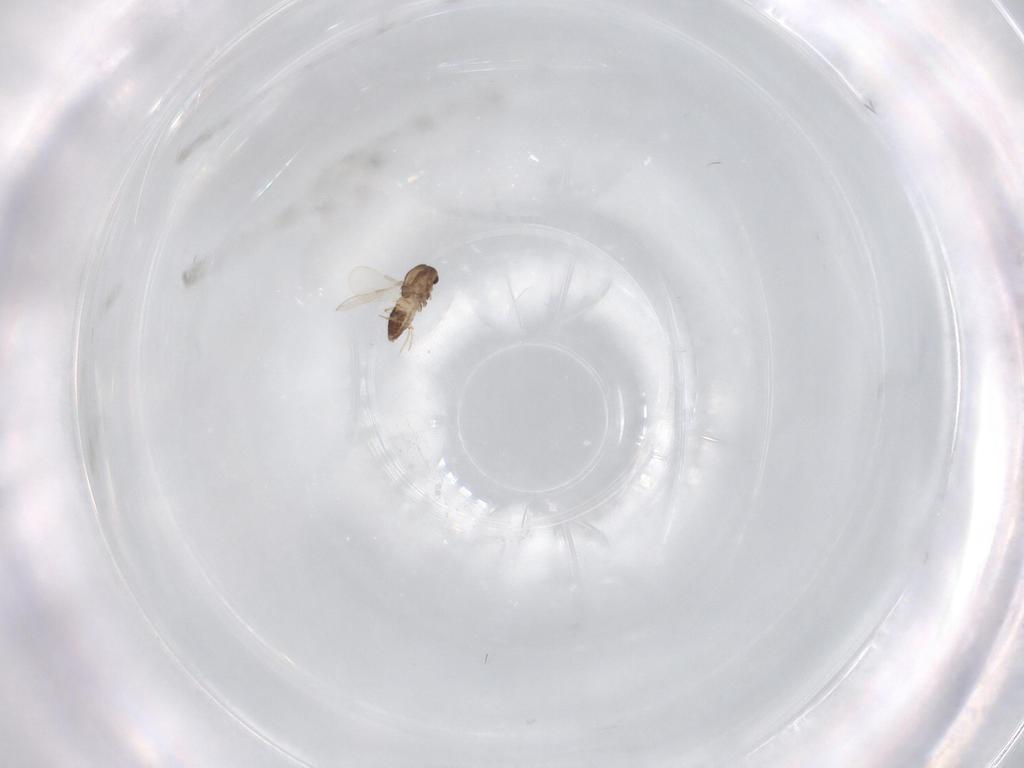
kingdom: Animalia
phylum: Arthropoda
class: Insecta
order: Diptera
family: Chironomidae
